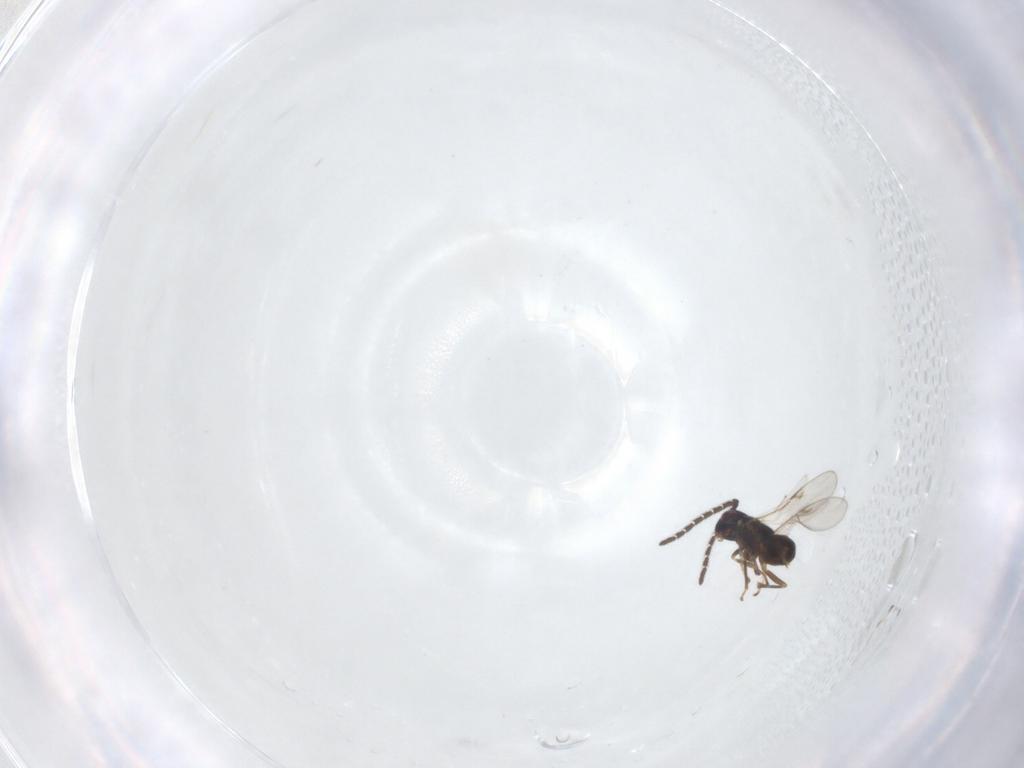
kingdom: Animalia
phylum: Arthropoda
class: Insecta
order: Hymenoptera
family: Encyrtidae
